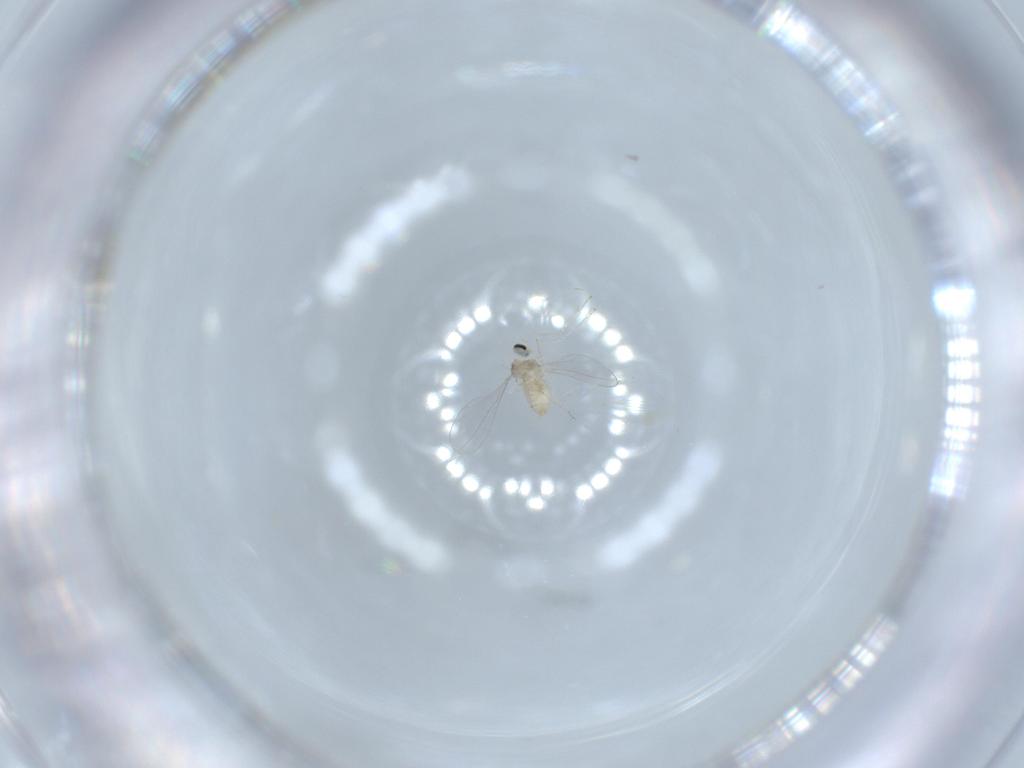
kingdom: Animalia
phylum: Arthropoda
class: Insecta
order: Diptera
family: Cecidomyiidae
